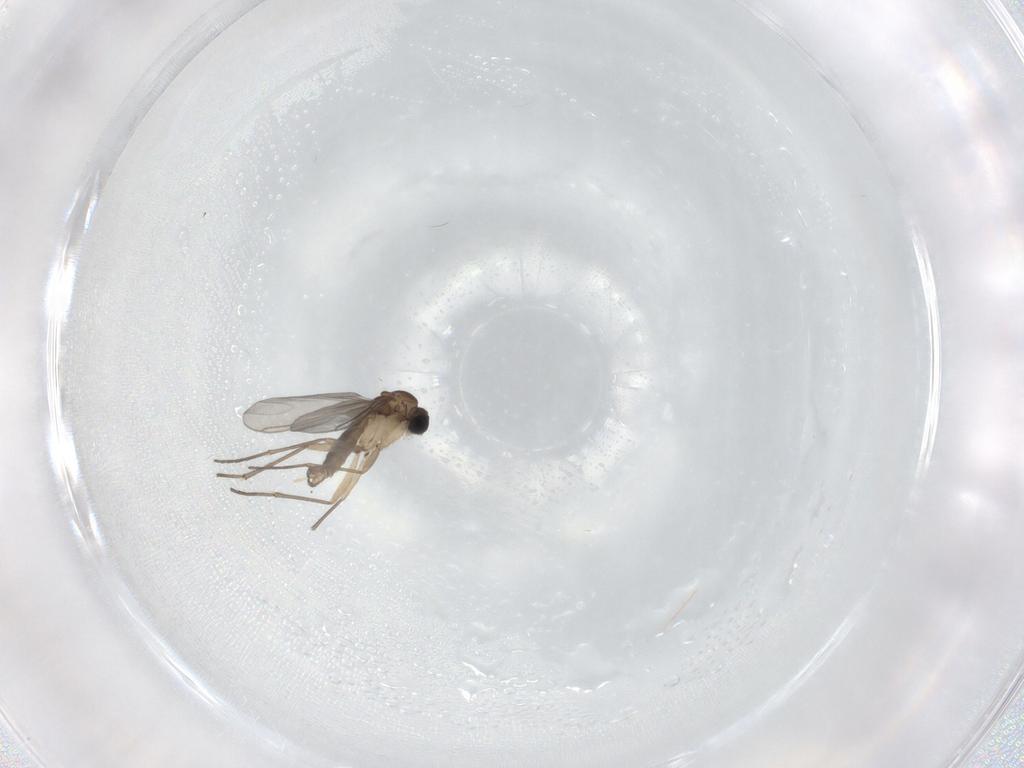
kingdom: Animalia
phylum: Arthropoda
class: Insecta
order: Diptera
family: Sciaridae
